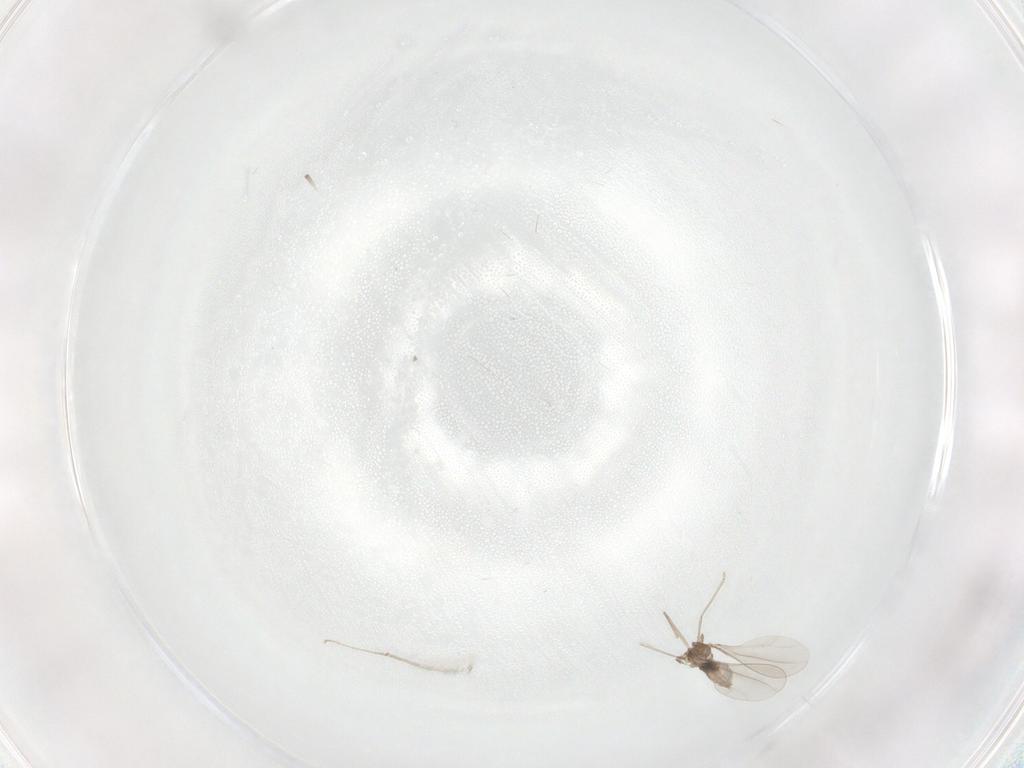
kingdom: Animalia
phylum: Arthropoda
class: Insecta
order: Diptera
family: Cecidomyiidae
